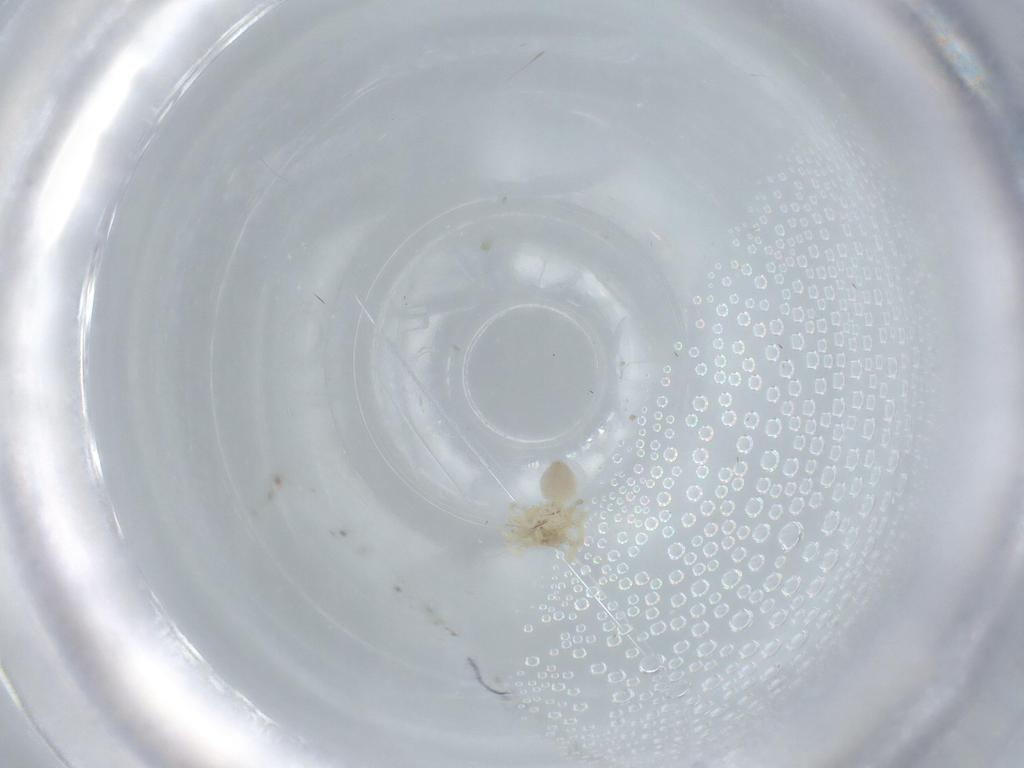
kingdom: Animalia
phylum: Arthropoda
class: Arachnida
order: Araneae
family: Oonopidae
